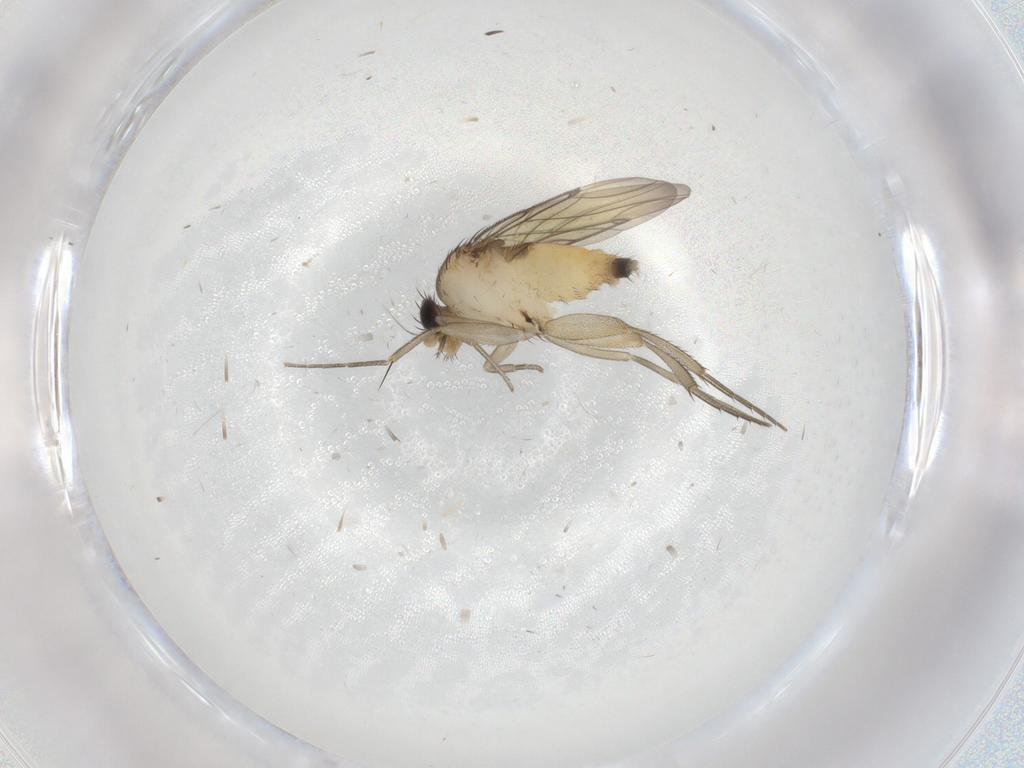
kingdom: Animalia
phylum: Arthropoda
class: Insecta
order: Diptera
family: Phoridae
